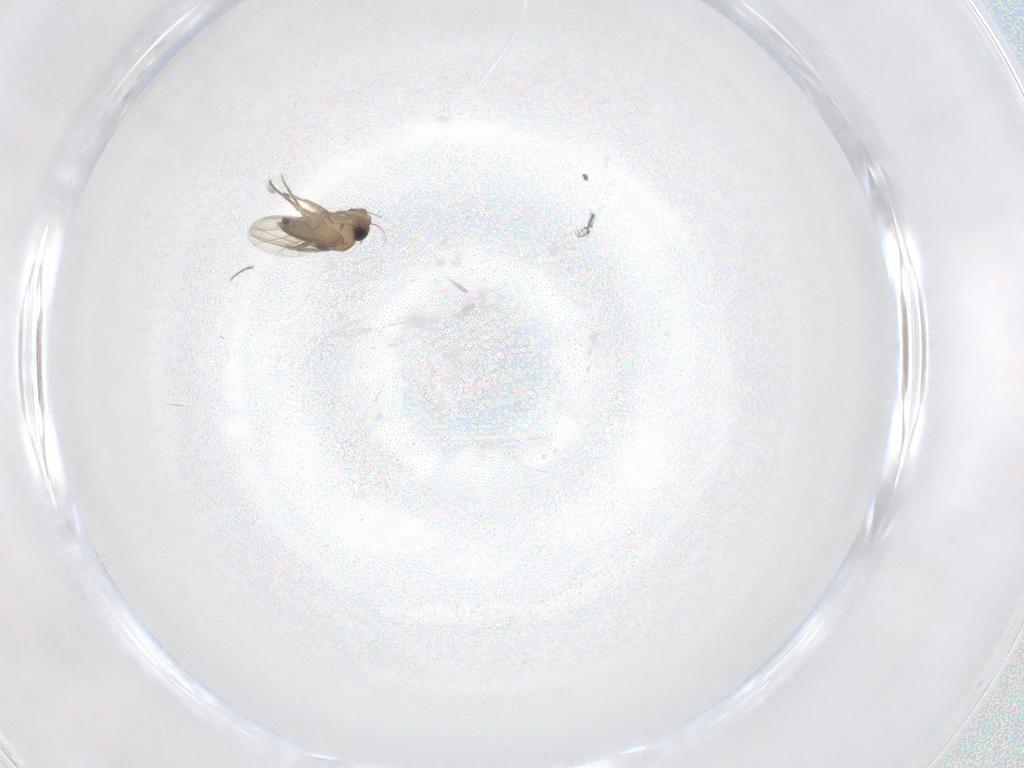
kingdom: Animalia
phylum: Arthropoda
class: Insecta
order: Diptera
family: Phoridae
